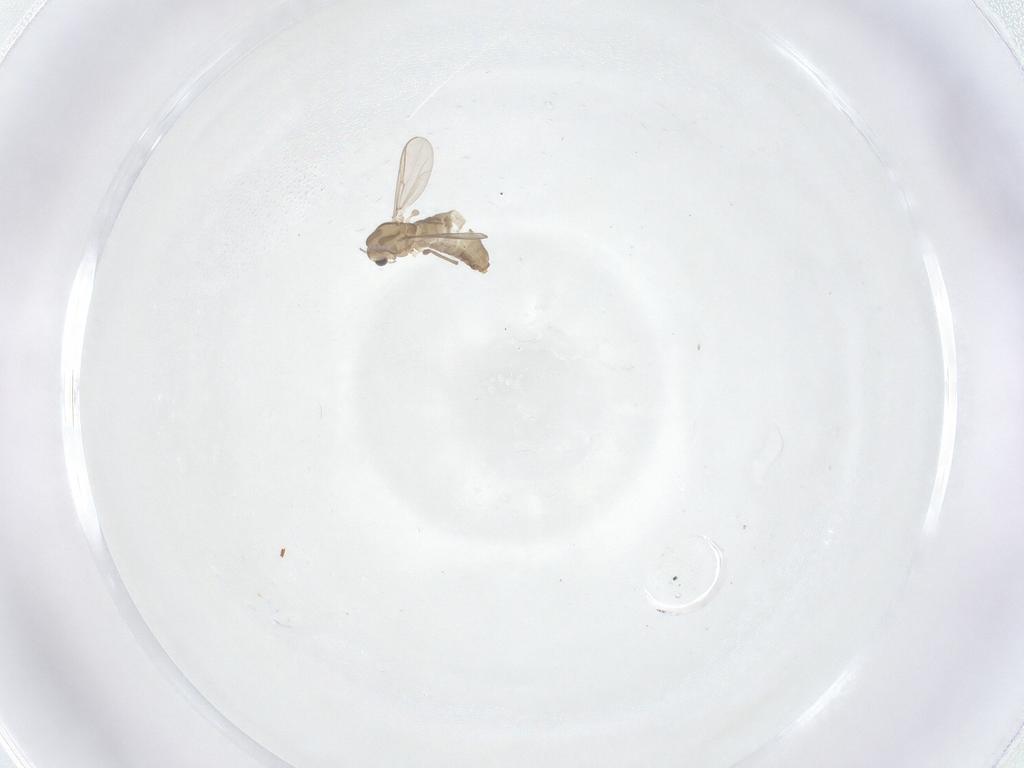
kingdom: Animalia
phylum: Arthropoda
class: Insecta
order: Diptera
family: Chironomidae
